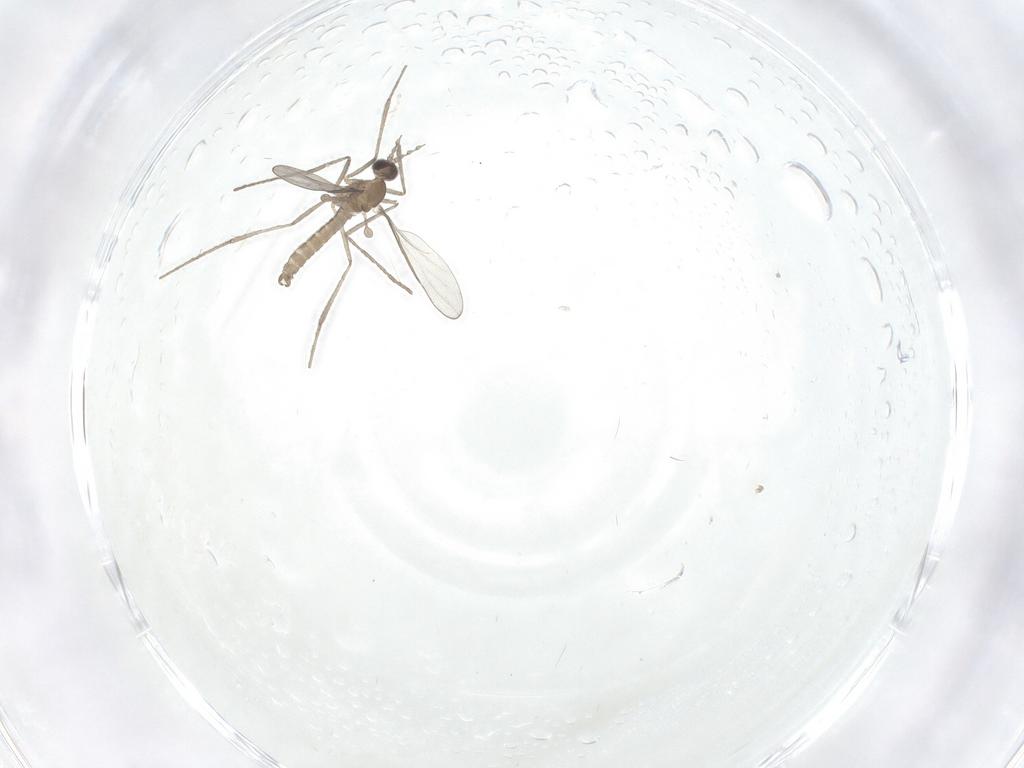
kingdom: Animalia
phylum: Arthropoda
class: Insecta
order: Diptera
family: Cecidomyiidae
